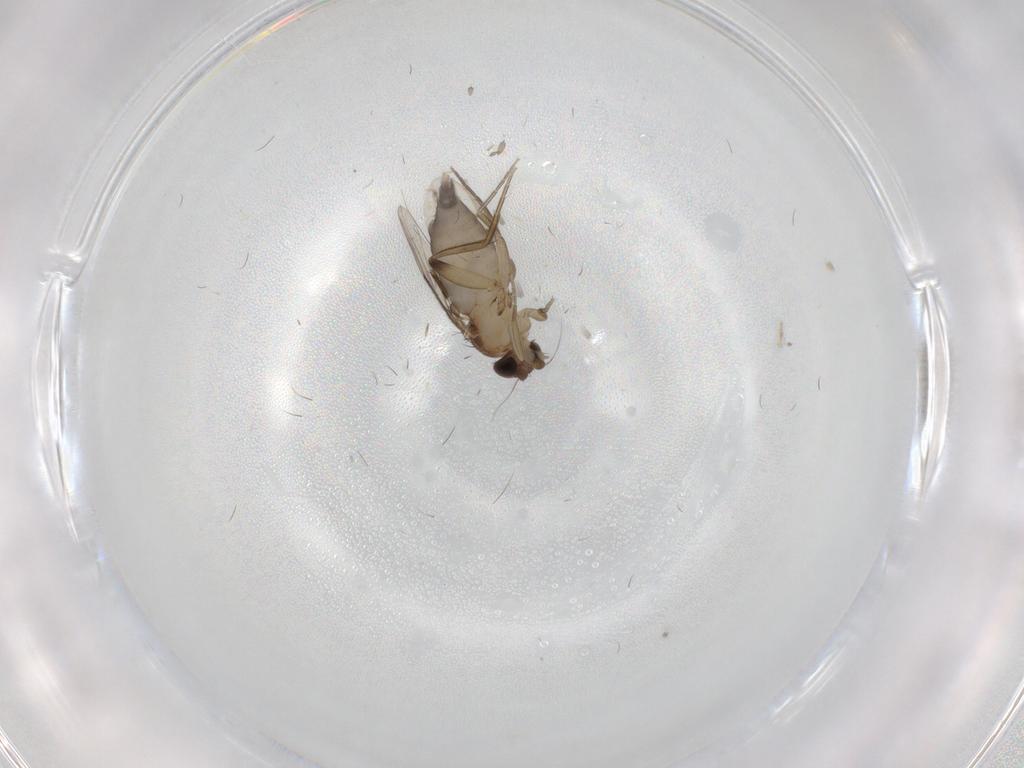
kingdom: Animalia
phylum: Arthropoda
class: Insecta
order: Diptera
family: Phoridae
